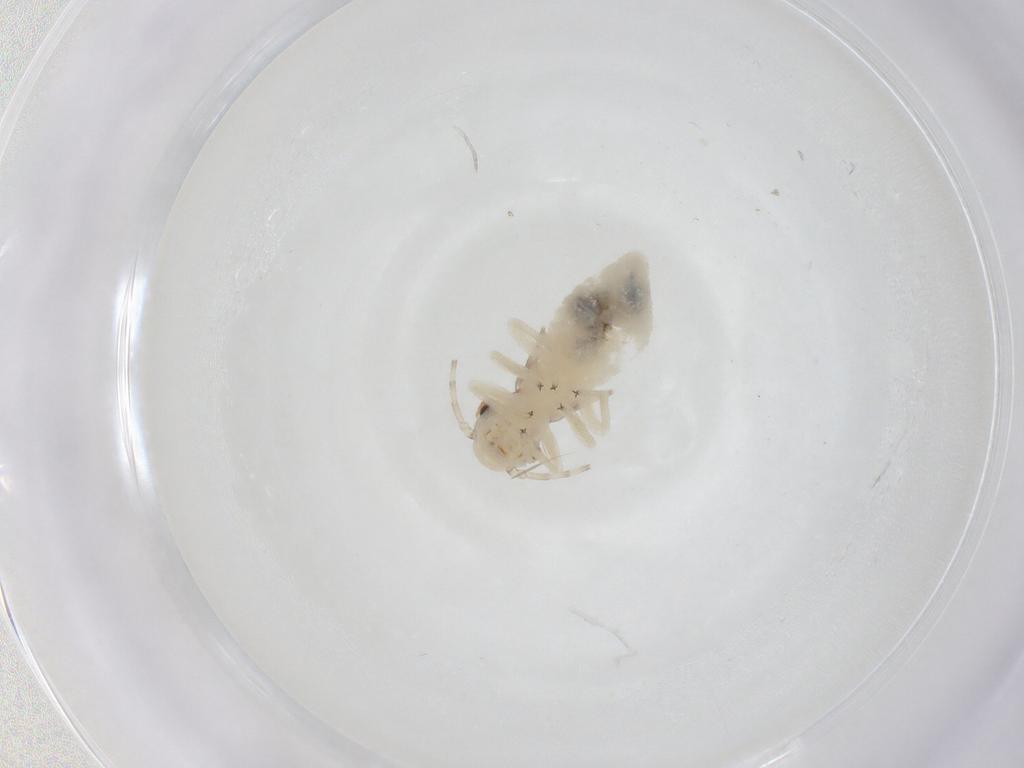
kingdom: Animalia
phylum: Arthropoda
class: Insecta
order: Psocodea
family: Amphipsocidae
